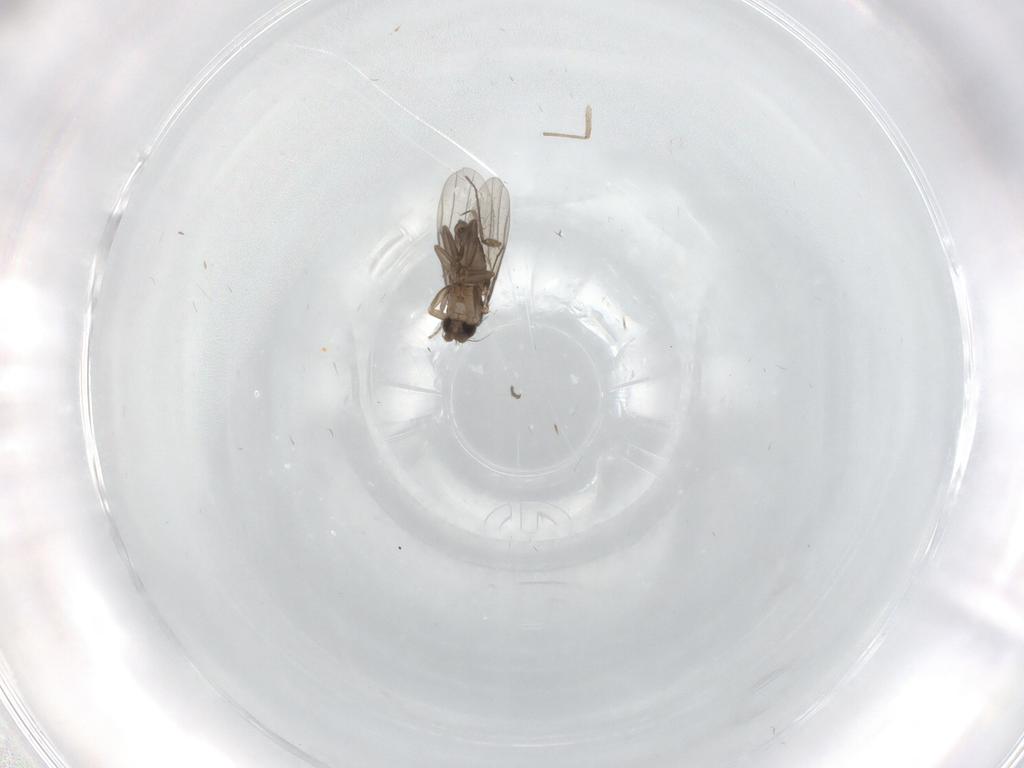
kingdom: Animalia
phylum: Arthropoda
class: Insecta
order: Diptera
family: Phoridae
